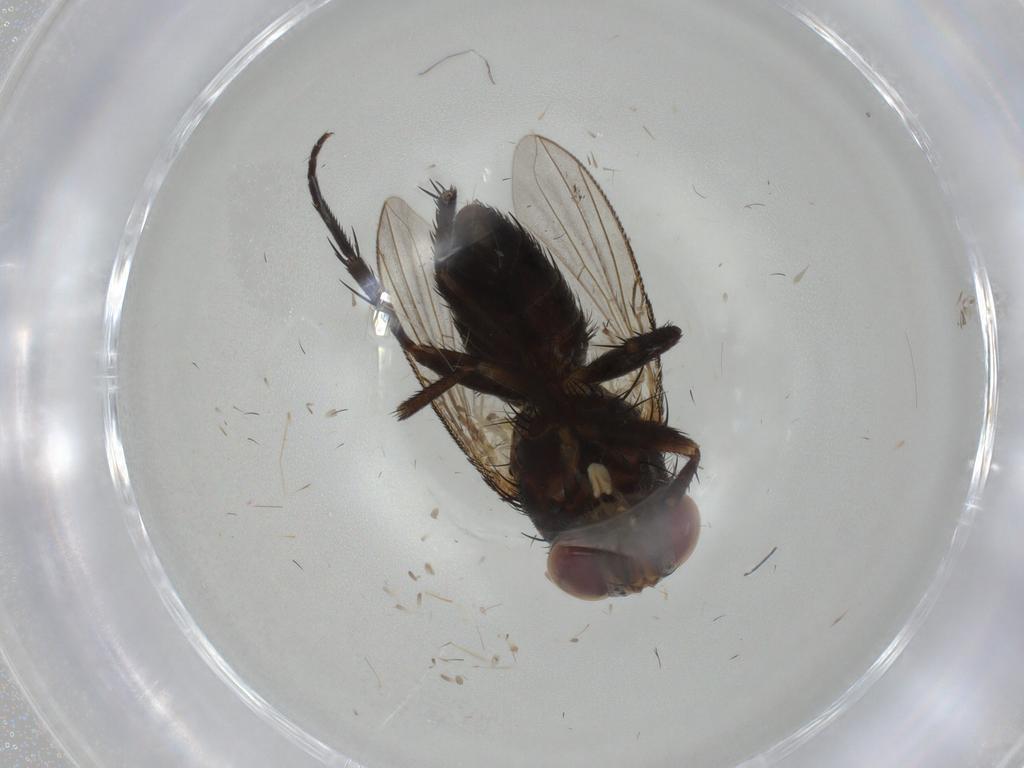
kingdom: Animalia
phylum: Arthropoda
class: Insecta
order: Diptera
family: Tachinidae
